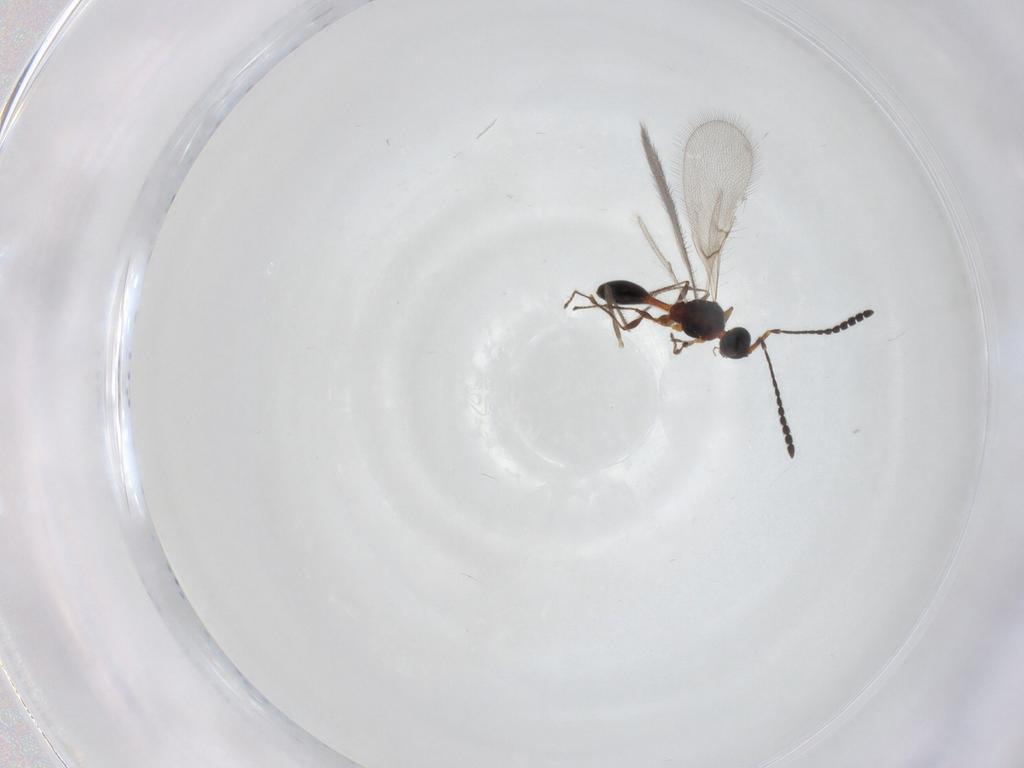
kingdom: Animalia
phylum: Arthropoda
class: Insecta
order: Hymenoptera
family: Diapriidae
